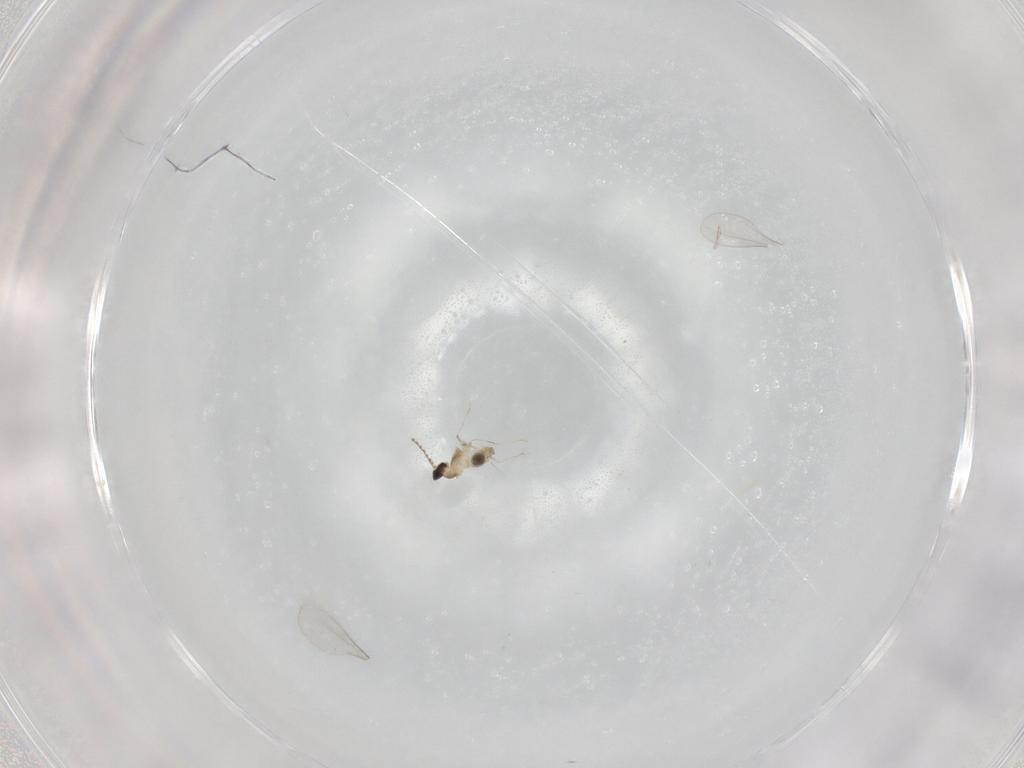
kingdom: Animalia
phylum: Arthropoda
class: Insecta
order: Diptera
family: Cecidomyiidae
